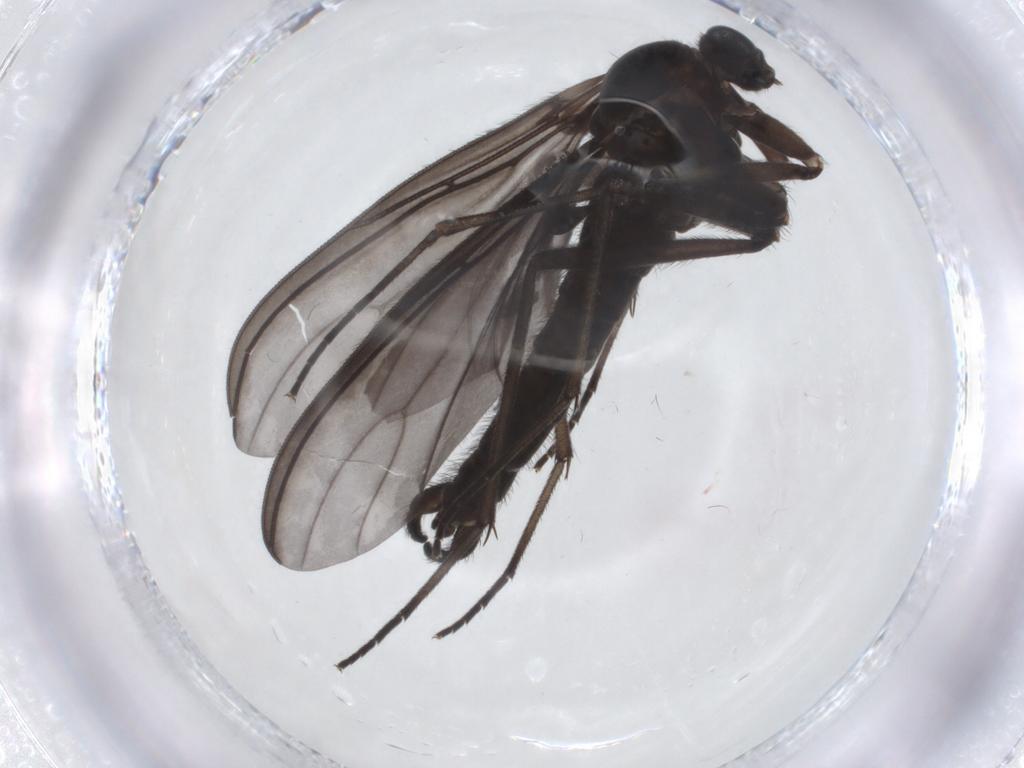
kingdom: Animalia
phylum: Arthropoda
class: Insecta
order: Diptera
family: Sciaridae
